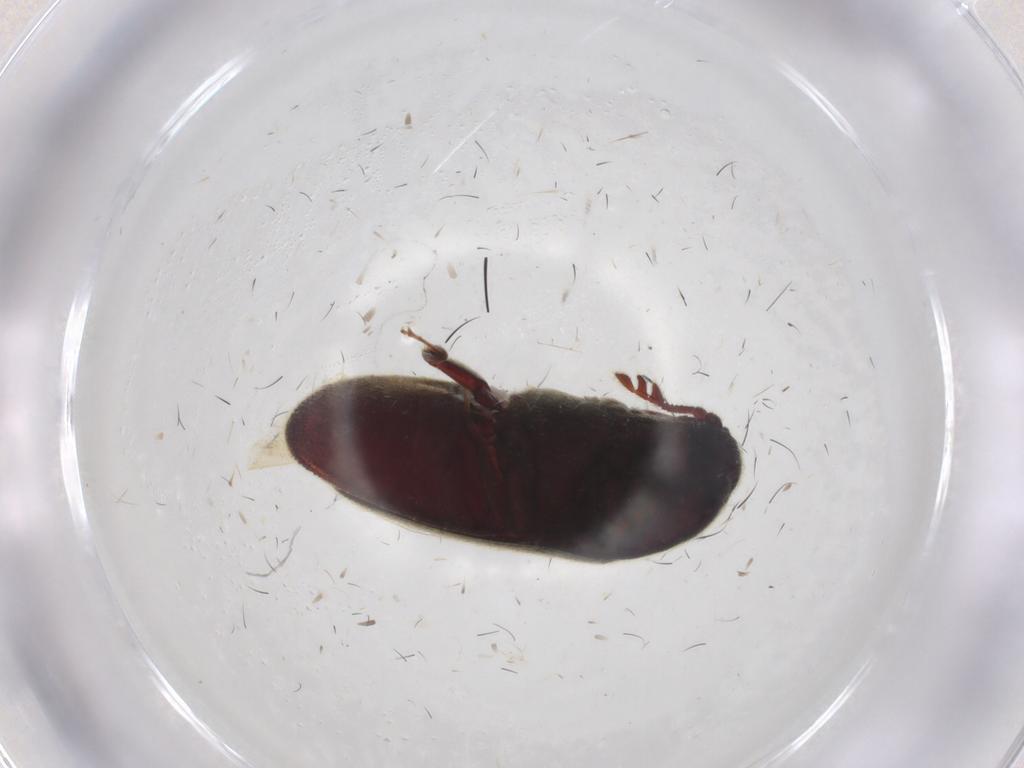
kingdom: Animalia
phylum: Arthropoda
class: Insecta
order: Coleoptera
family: Throscidae
